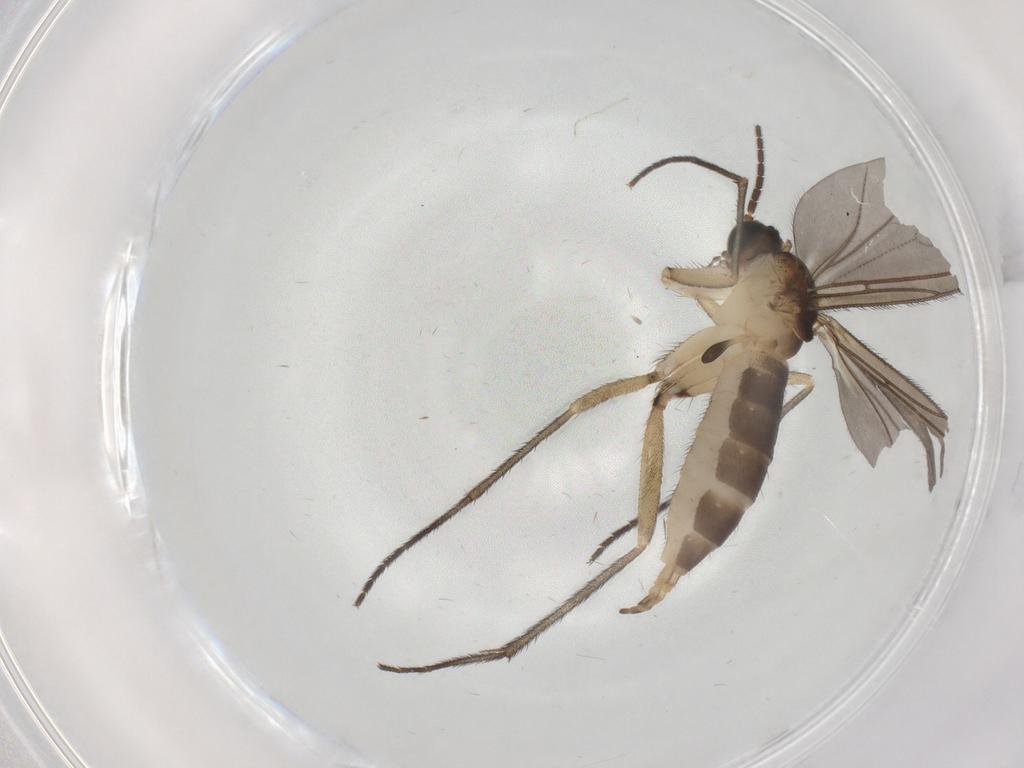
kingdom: Animalia
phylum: Arthropoda
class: Insecta
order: Diptera
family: Sciaridae
